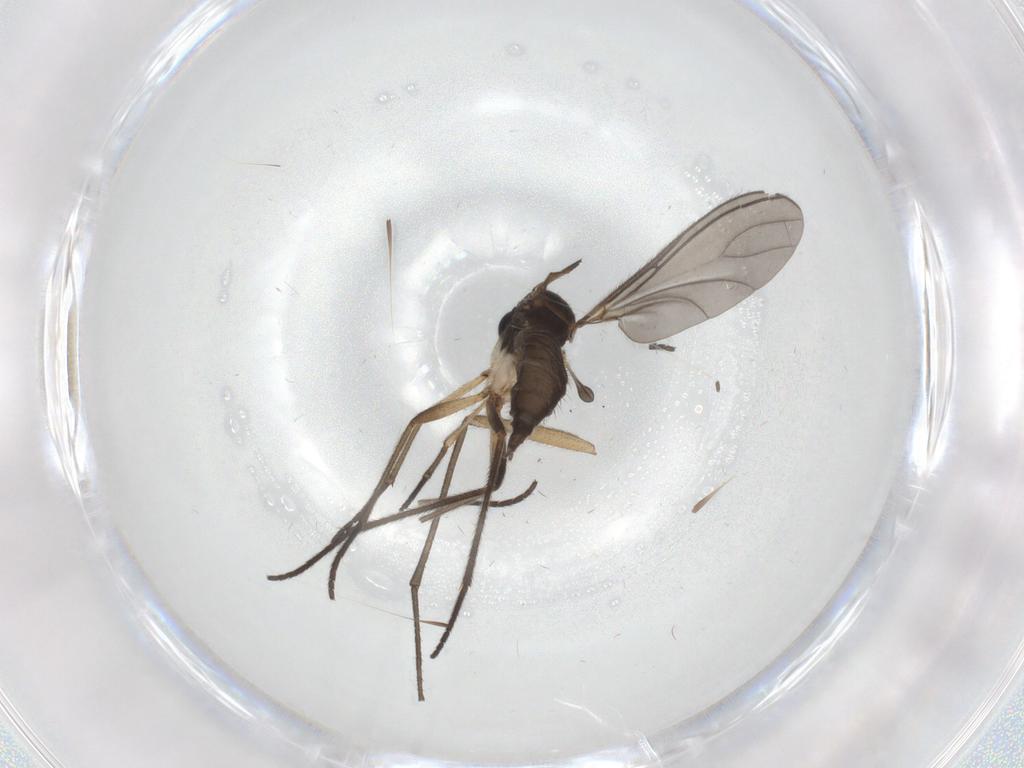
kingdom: Animalia
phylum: Arthropoda
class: Insecta
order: Diptera
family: Sciaridae
